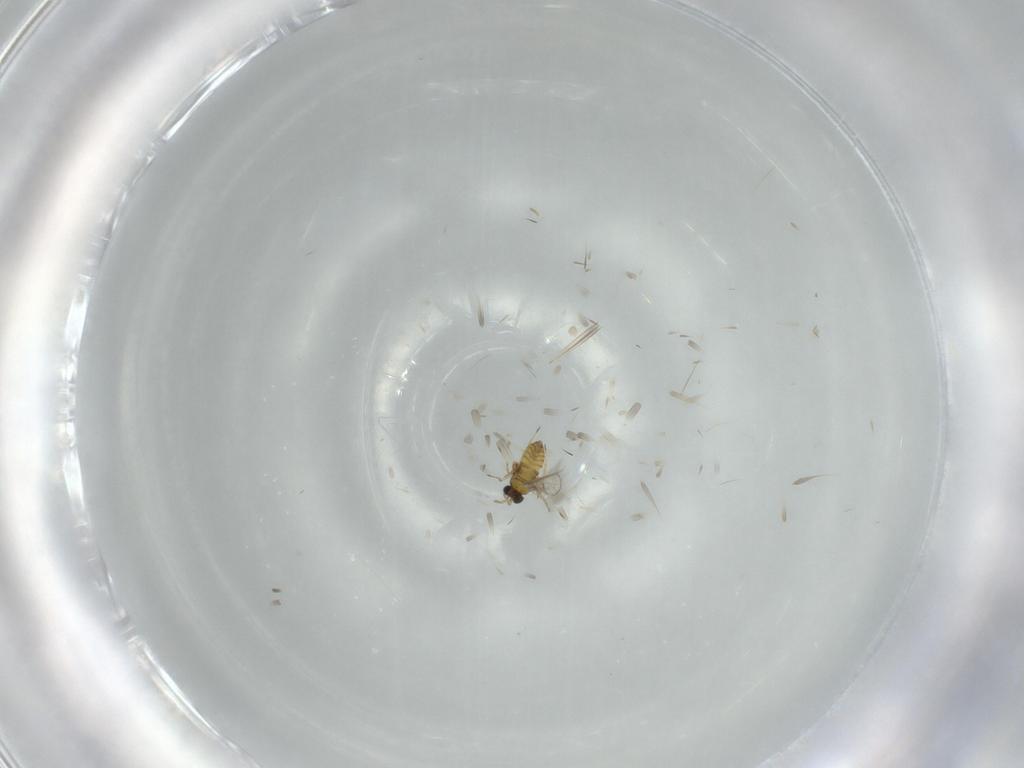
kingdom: Animalia
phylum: Arthropoda
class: Insecta
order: Hymenoptera
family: Trichogrammatidae
